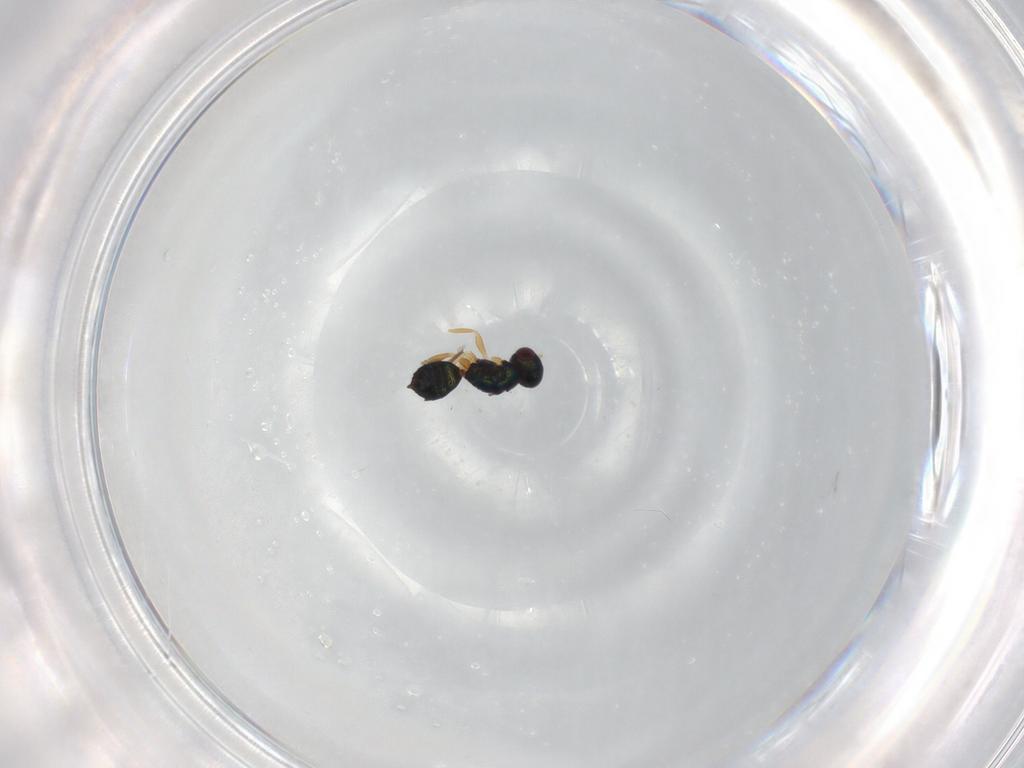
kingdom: Animalia
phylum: Arthropoda
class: Insecta
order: Hymenoptera
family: Tetracampidae
